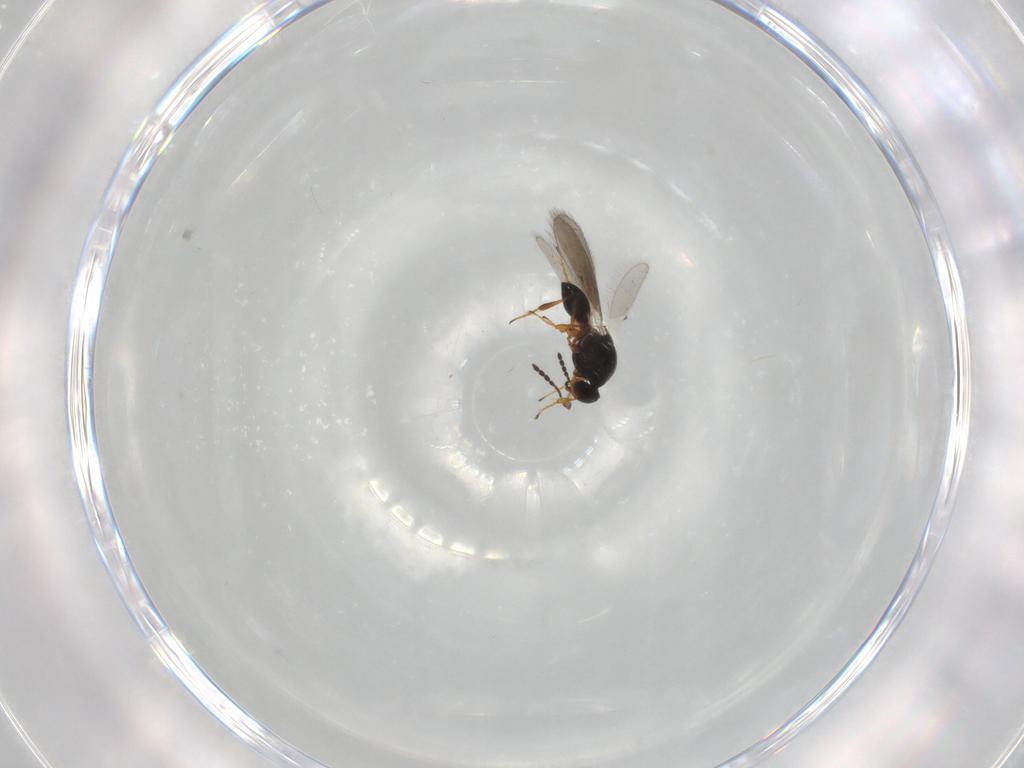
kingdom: Animalia
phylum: Arthropoda
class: Insecta
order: Hymenoptera
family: Platygastridae
